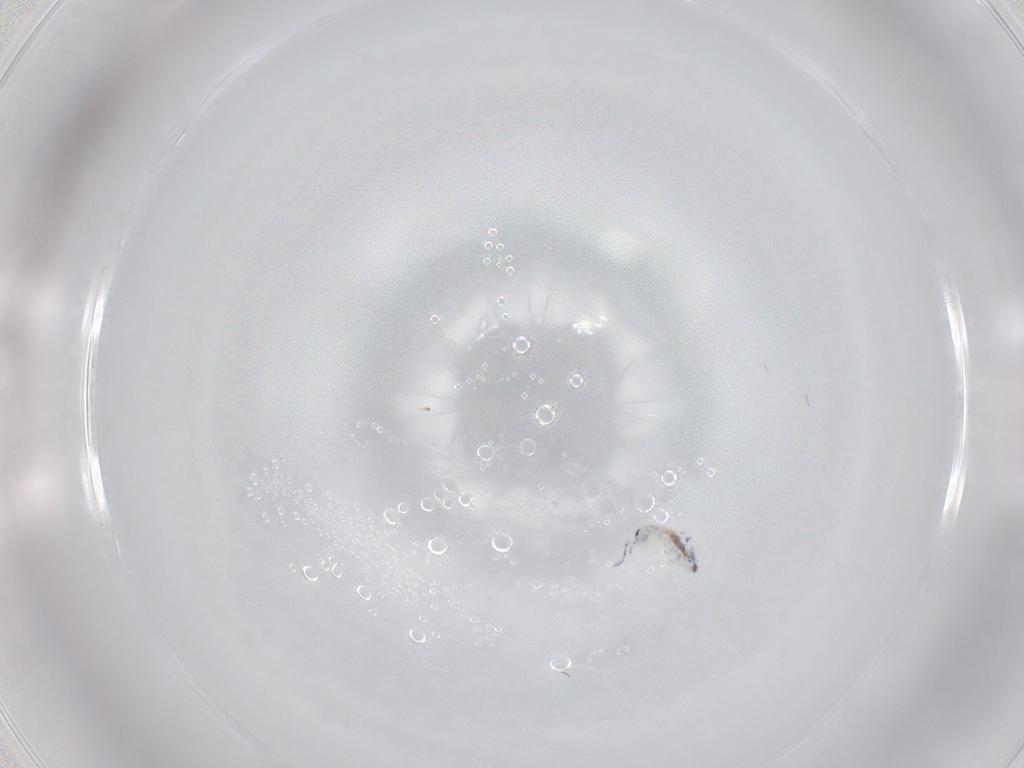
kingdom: Animalia
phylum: Arthropoda
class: Collembola
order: Entomobryomorpha
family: Entomobryidae
